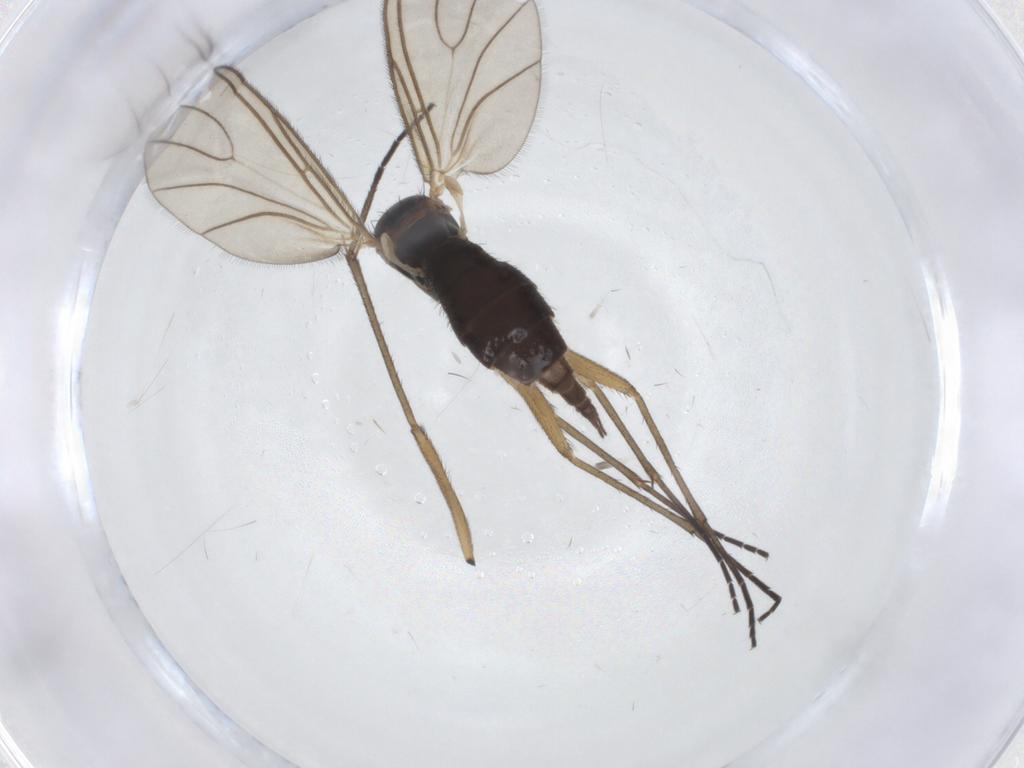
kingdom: Animalia
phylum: Arthropoda
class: Insecta
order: Diptera
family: Sciaridae
